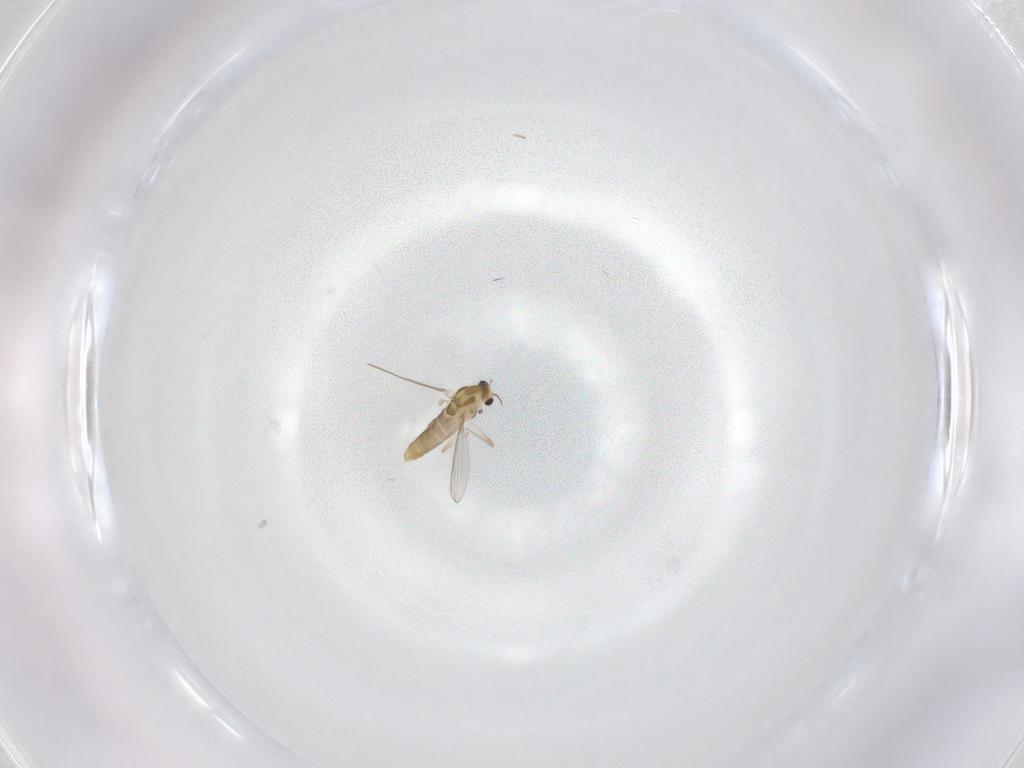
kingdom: Animalia
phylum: Arthropoda
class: Insecta
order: Diptera
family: Chironomidae
